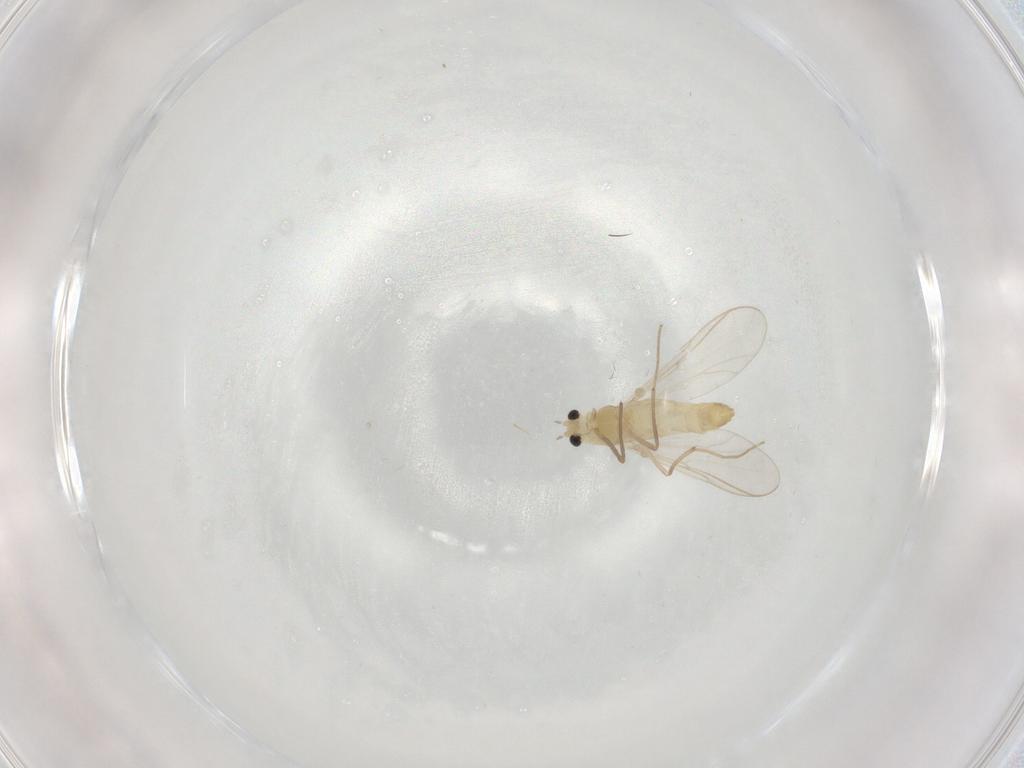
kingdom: Animalia
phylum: Arthropoda
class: Insecta
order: Diptera
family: Chironomidae
